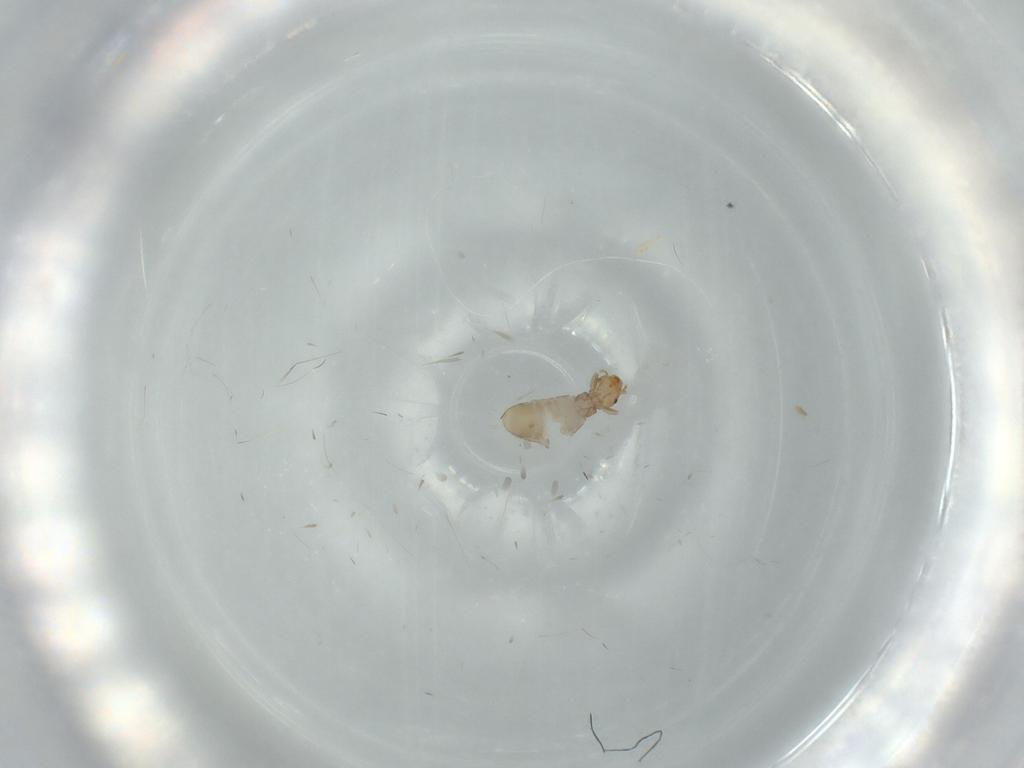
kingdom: Animalia
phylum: Arthropoda
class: Insecta
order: Psocodea
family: Liposcelididae
